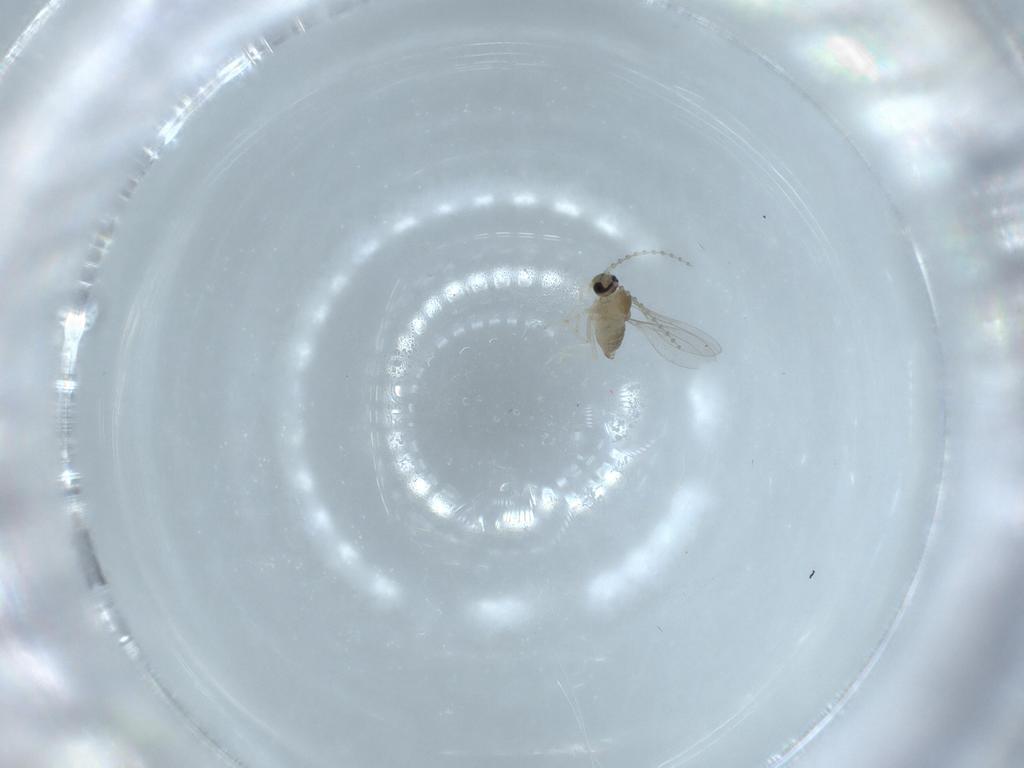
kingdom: Animalia
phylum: Arthropoda
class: Insecta
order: Diptera
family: Cecidomyiidae
